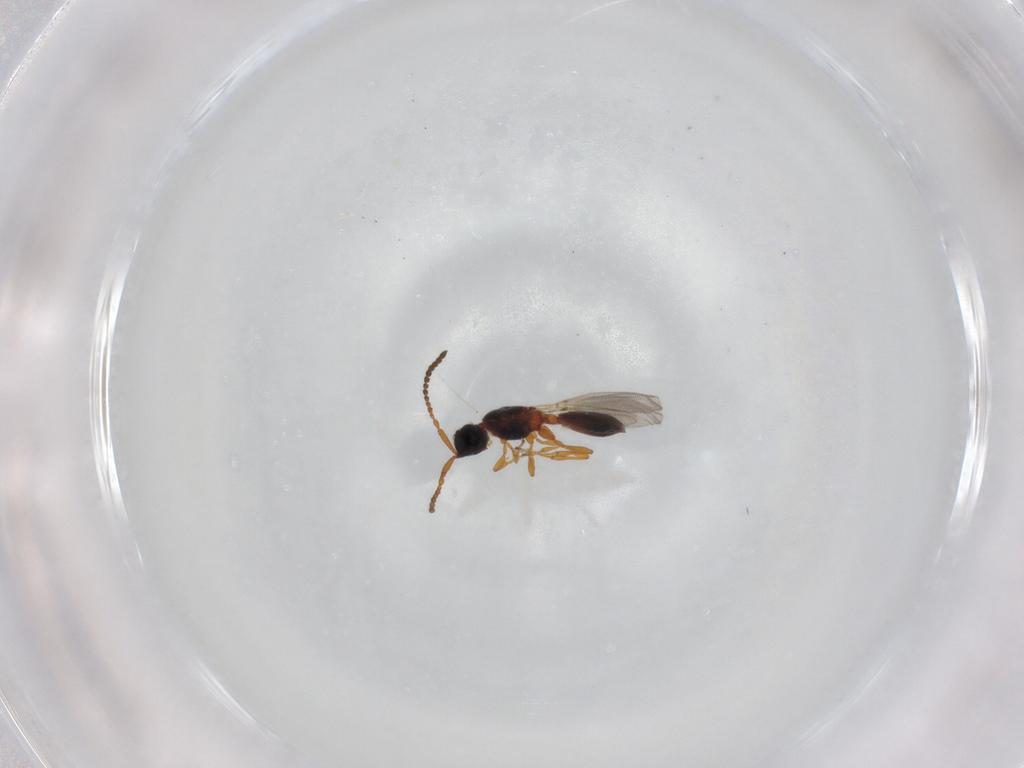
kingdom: Animalia
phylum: Arthropoda
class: Insecta
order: Hymenoptera
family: Diapriidae
